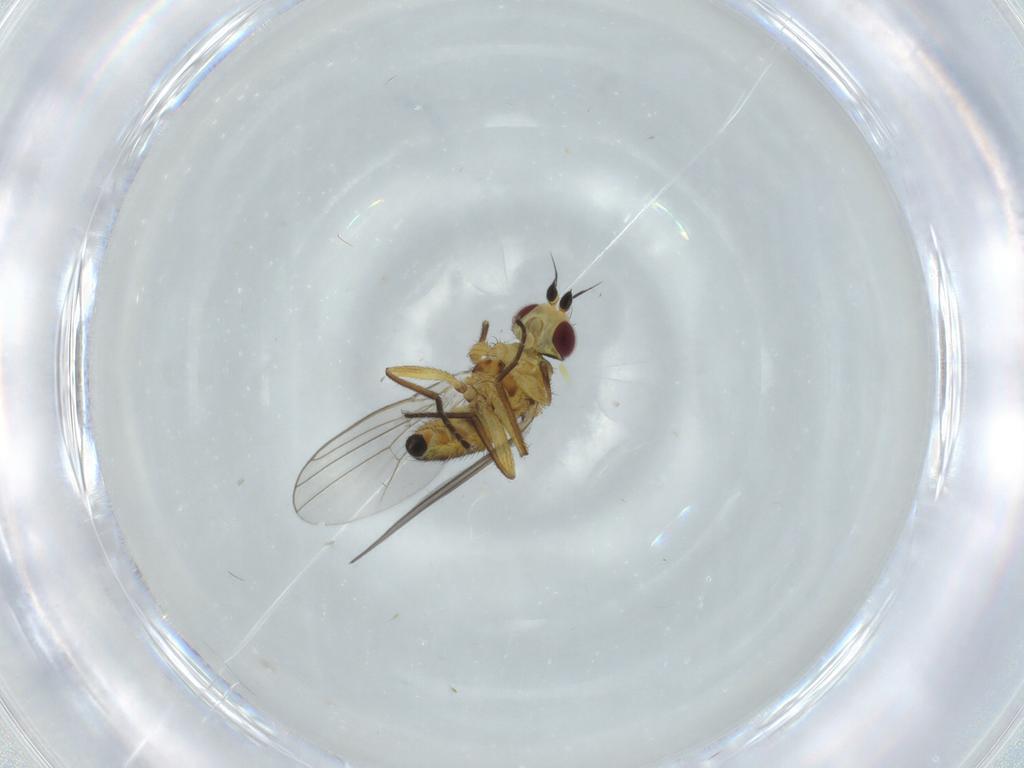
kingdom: Animalia
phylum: Arthropoda
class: Insecta
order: Diptera
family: Agromyzidae
